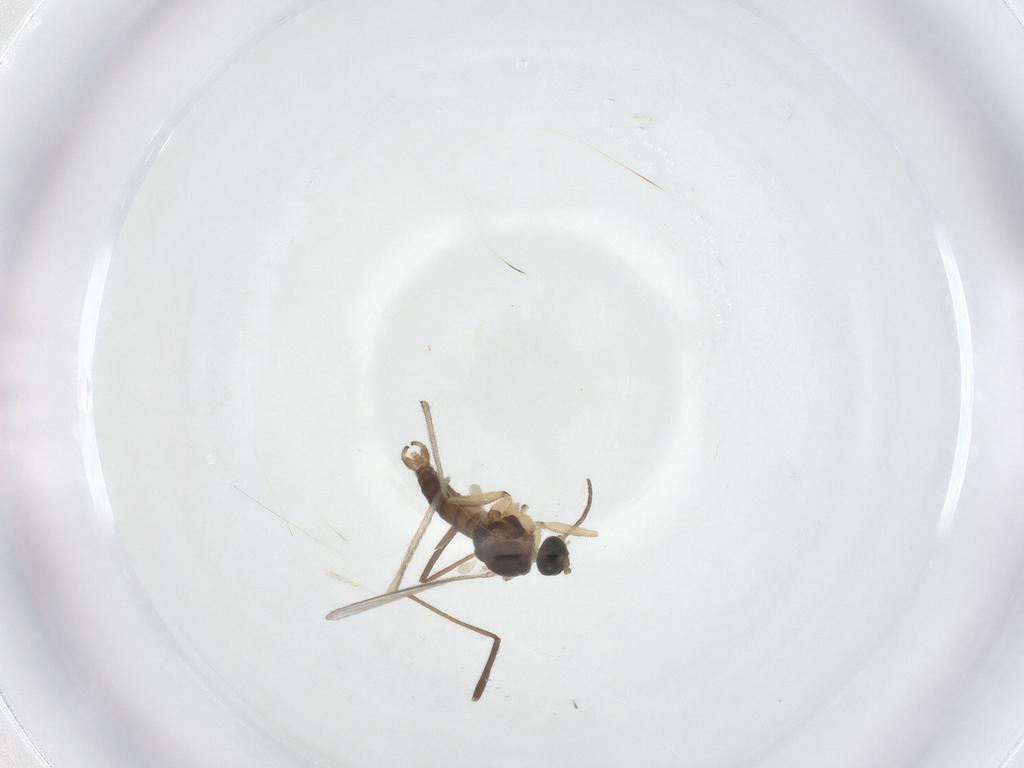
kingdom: Animalia
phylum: Arthropoda
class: Insecta
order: Diptera
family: Sciaridae
